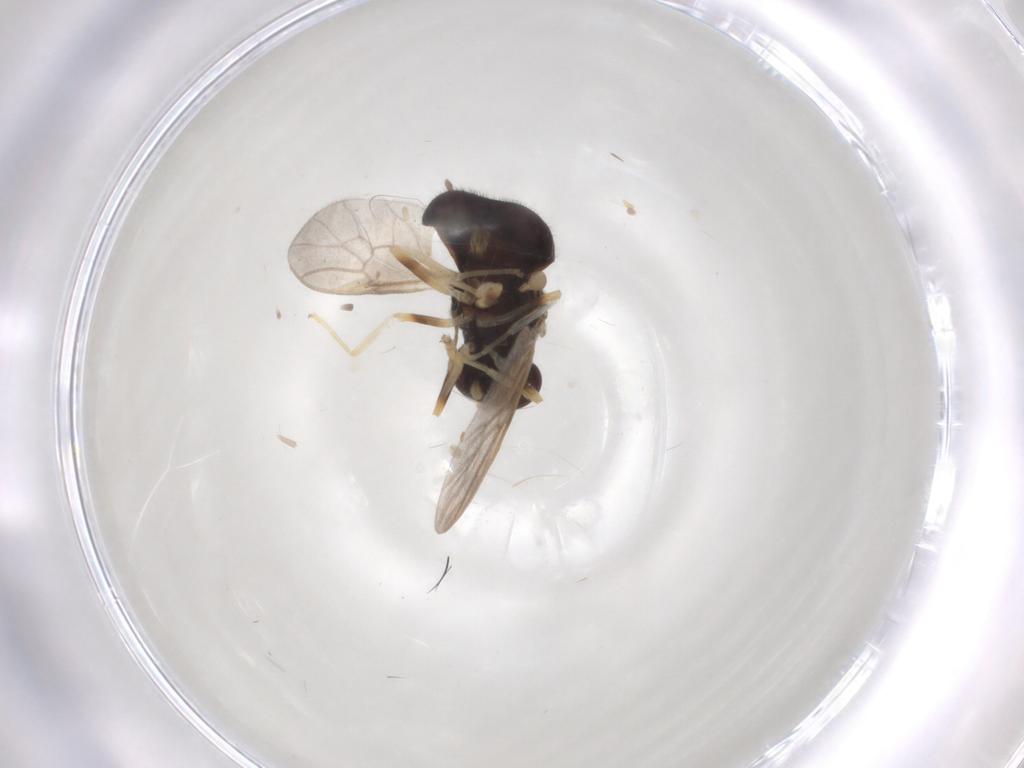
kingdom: Animalia
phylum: Arthropoda
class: Insecta
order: Diptera
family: Stratiomyidae
